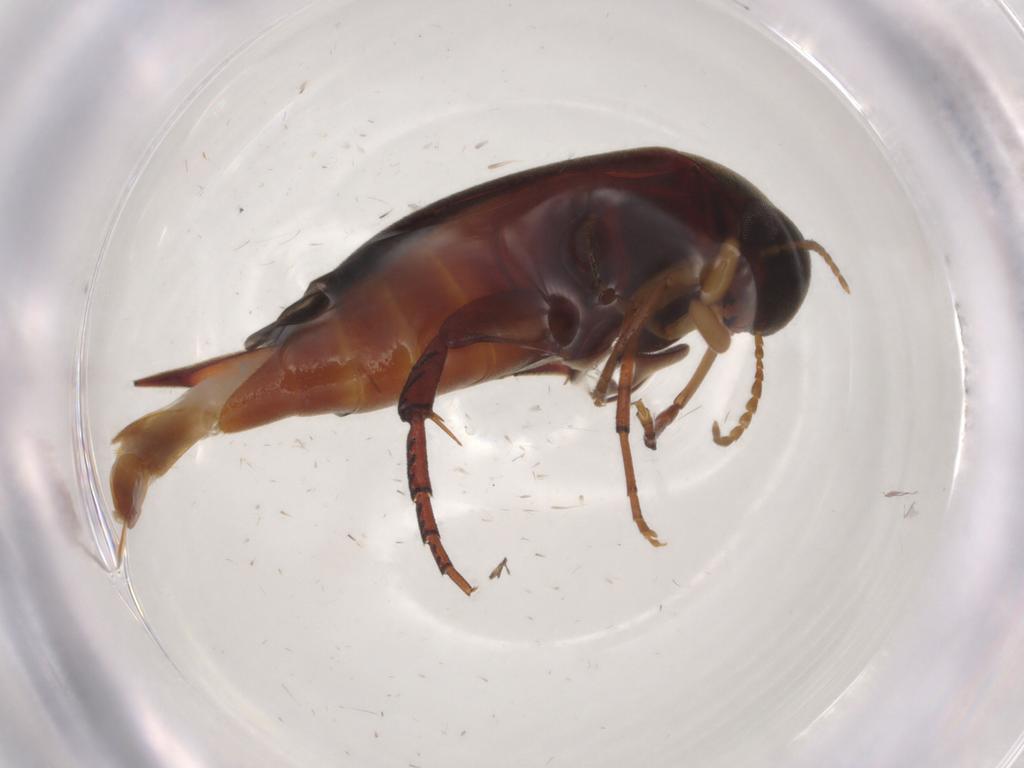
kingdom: Animalia
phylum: Arthropoda
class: Insecta
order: Coleoptera
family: Mordellidae
